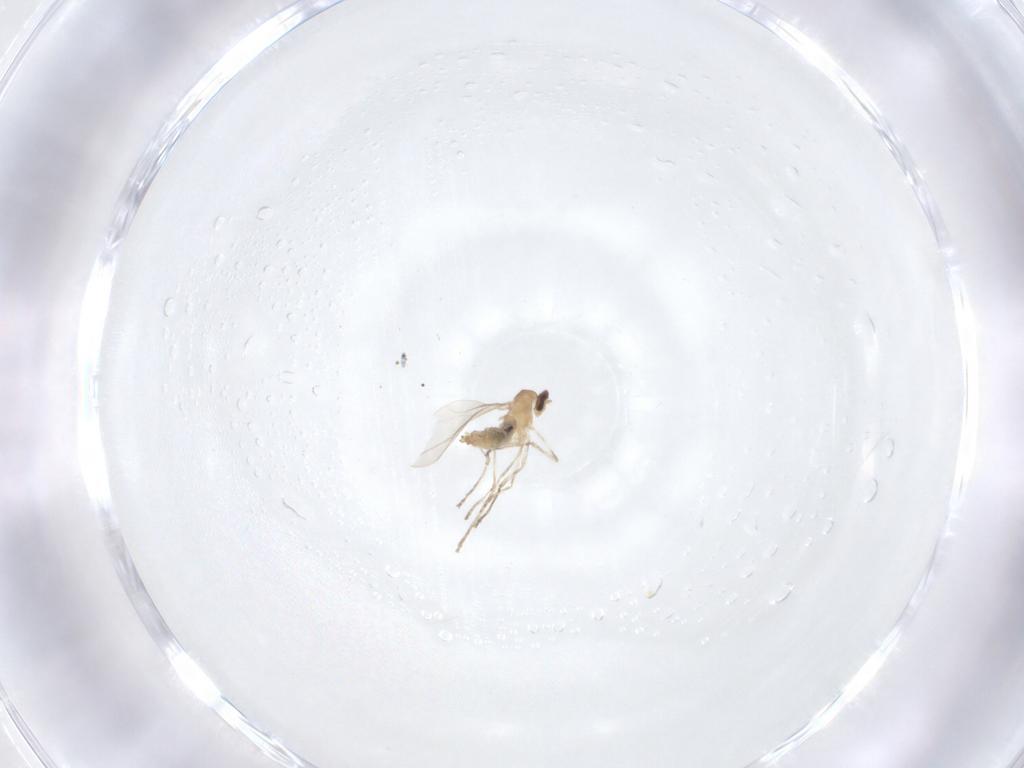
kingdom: Animalia
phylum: Arthropoda
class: Insecta
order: Diptera
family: Cecidomyiidae
